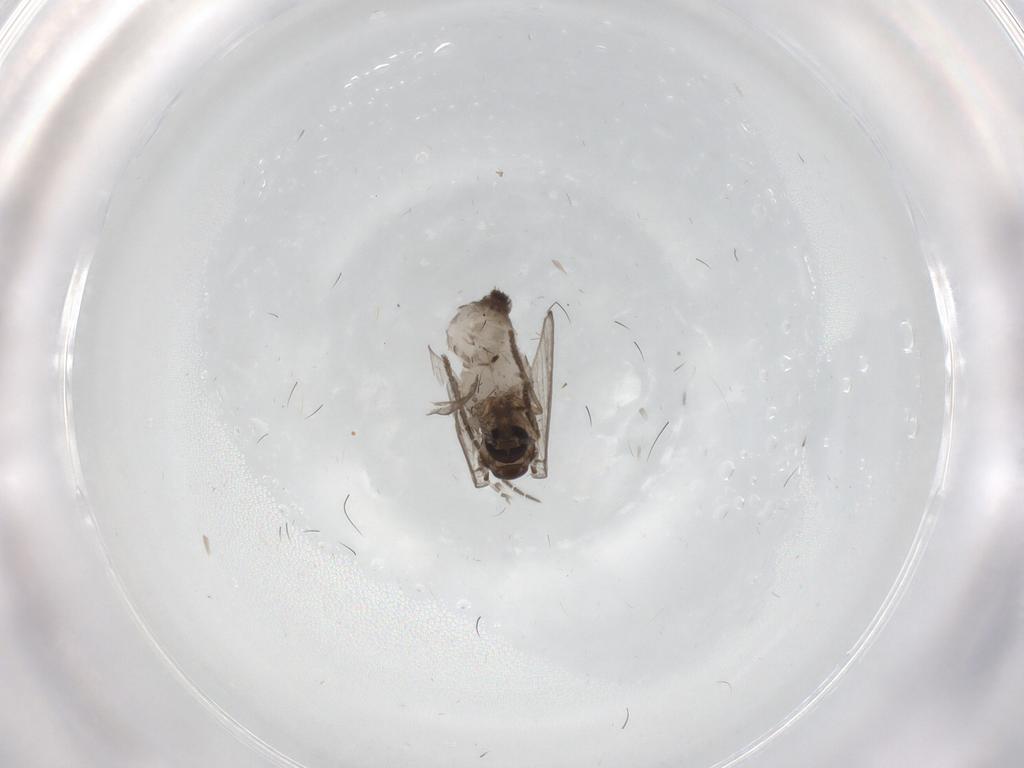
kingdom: Animalia
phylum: Arthropoda
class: Insecta
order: Diptera
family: Psychodidae
